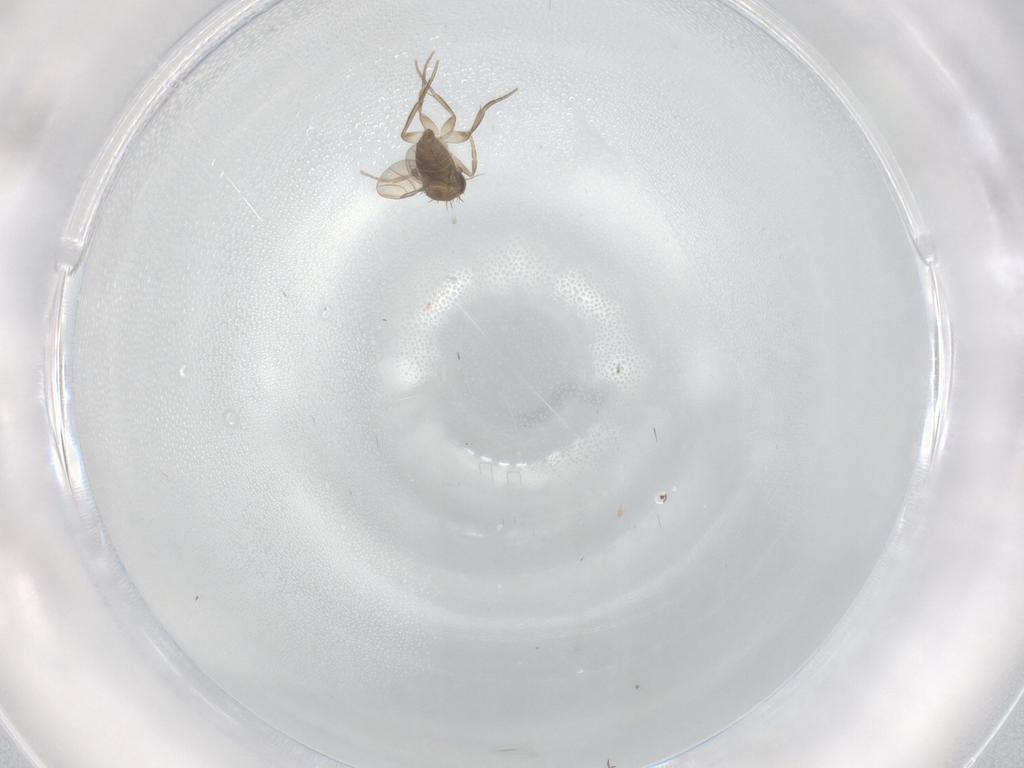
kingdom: Animalia
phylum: Arthropoda
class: Insecta
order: Diptera
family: Phoridae
